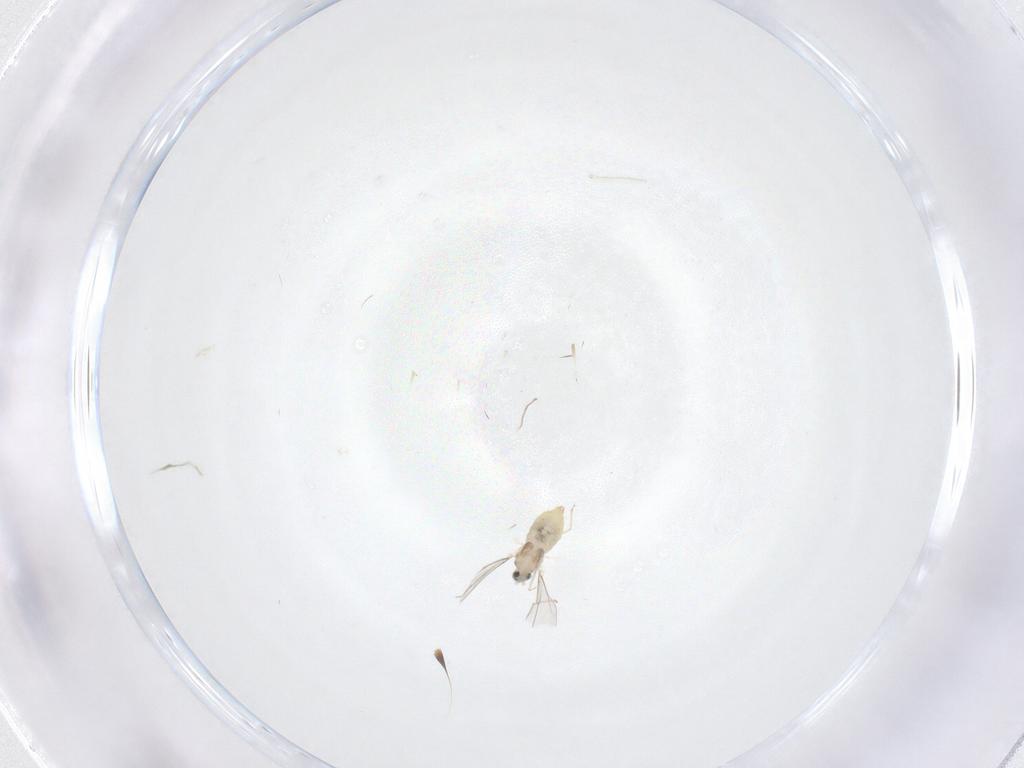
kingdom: Animalia
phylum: Arthropoda
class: Insecta
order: Diptera
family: Cecidomyiidae
